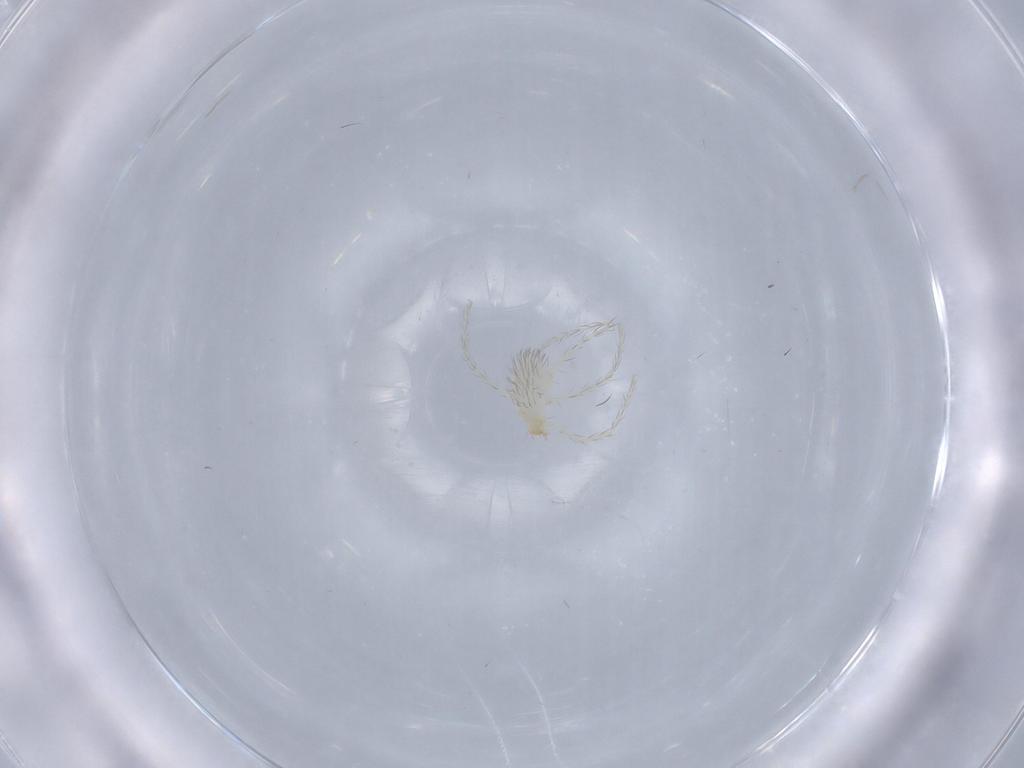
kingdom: Animalia
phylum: Arthropoda
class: Arachnida
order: Trombidiformes
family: Erythraeidae
